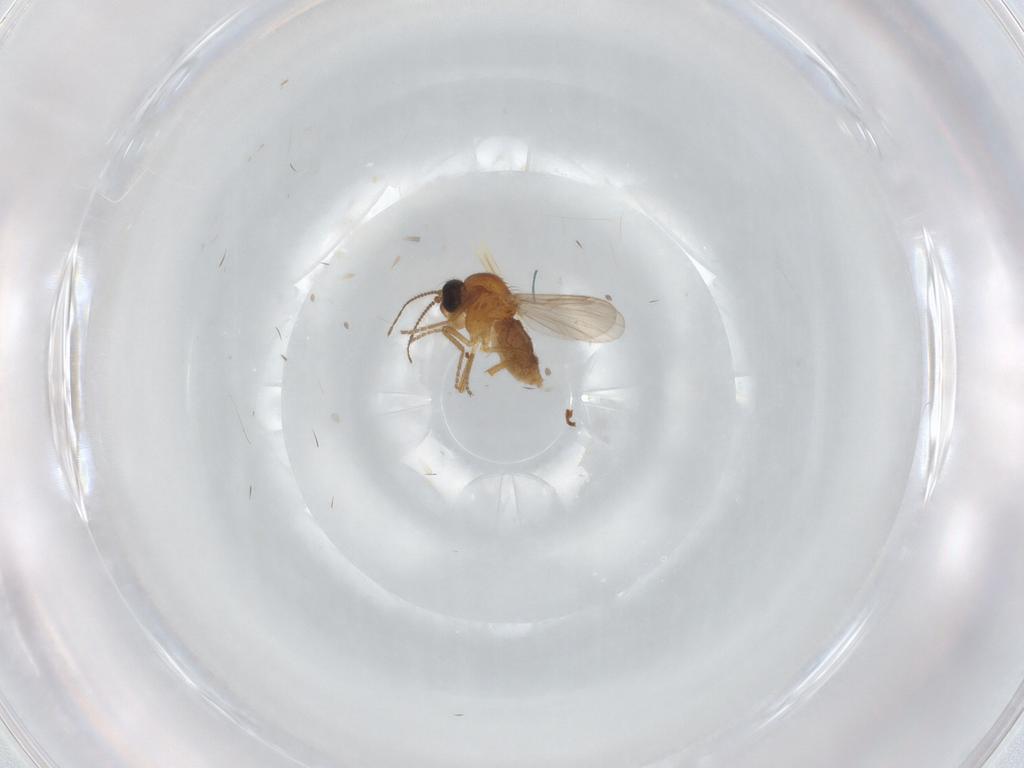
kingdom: Animalia
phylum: Arthropoda
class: Insecta
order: Diptera
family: Ceratopogonidae
